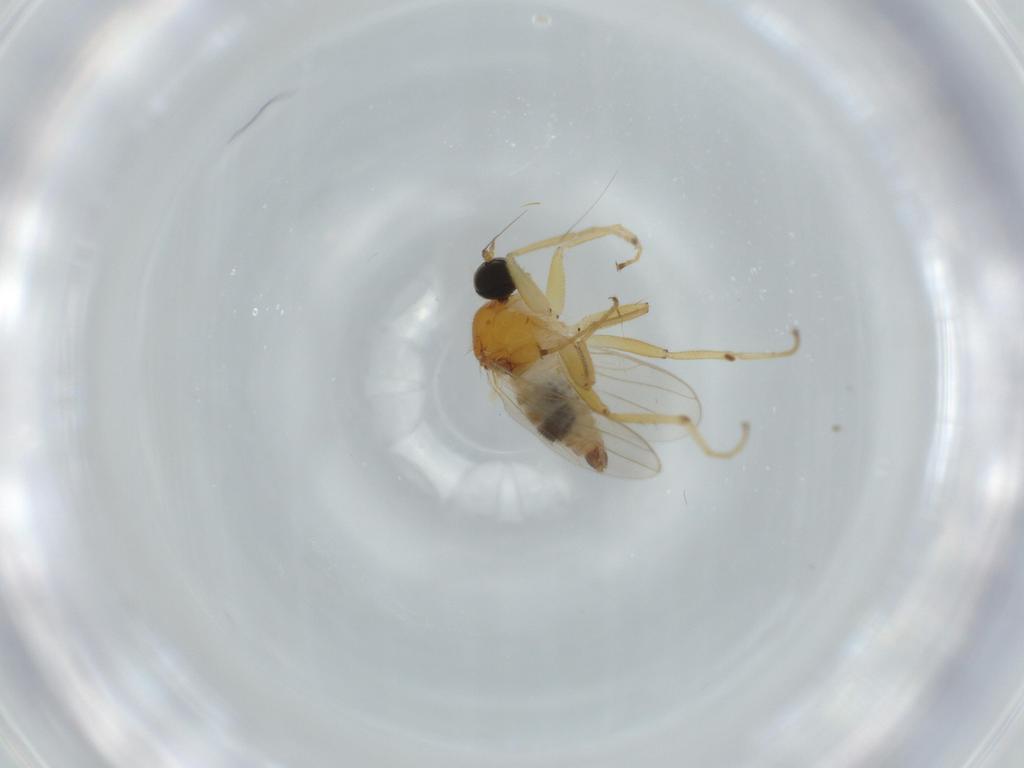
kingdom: Animalia
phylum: Arthropoda
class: Insecta
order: Diptera
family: Hybotidae
